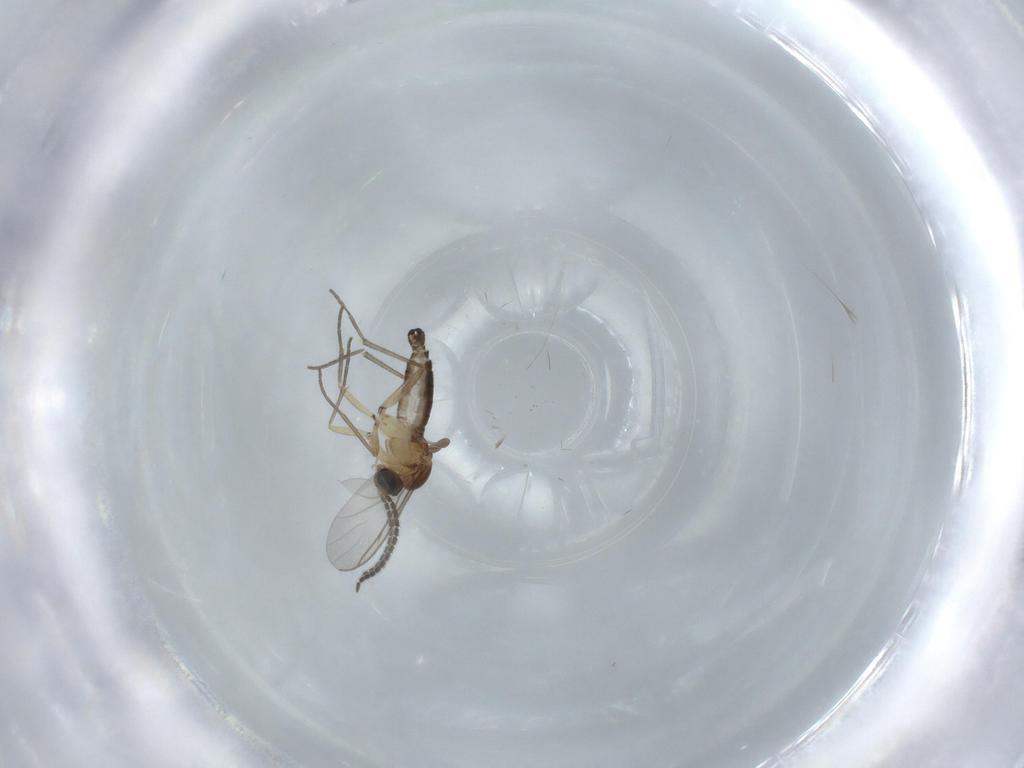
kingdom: Animalia
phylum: Arthropoda
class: Insecta
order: Diptera
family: Sciaridae
